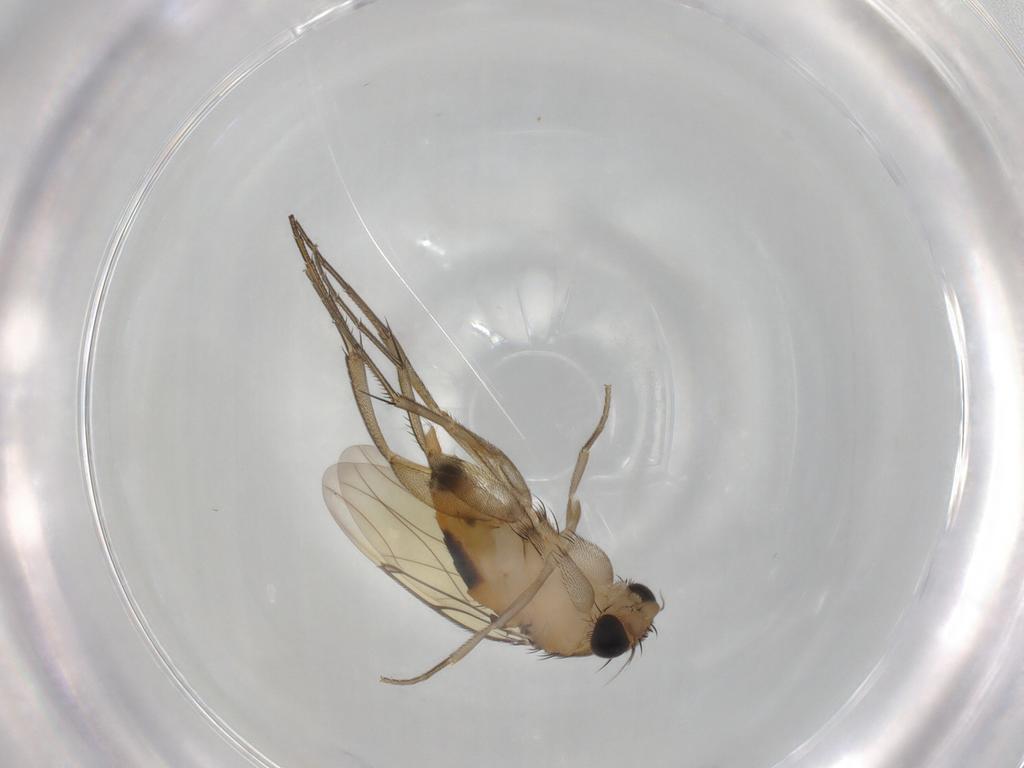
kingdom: Animalia
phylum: Arthropoda
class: Insecta
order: Diptera
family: Phoridae
